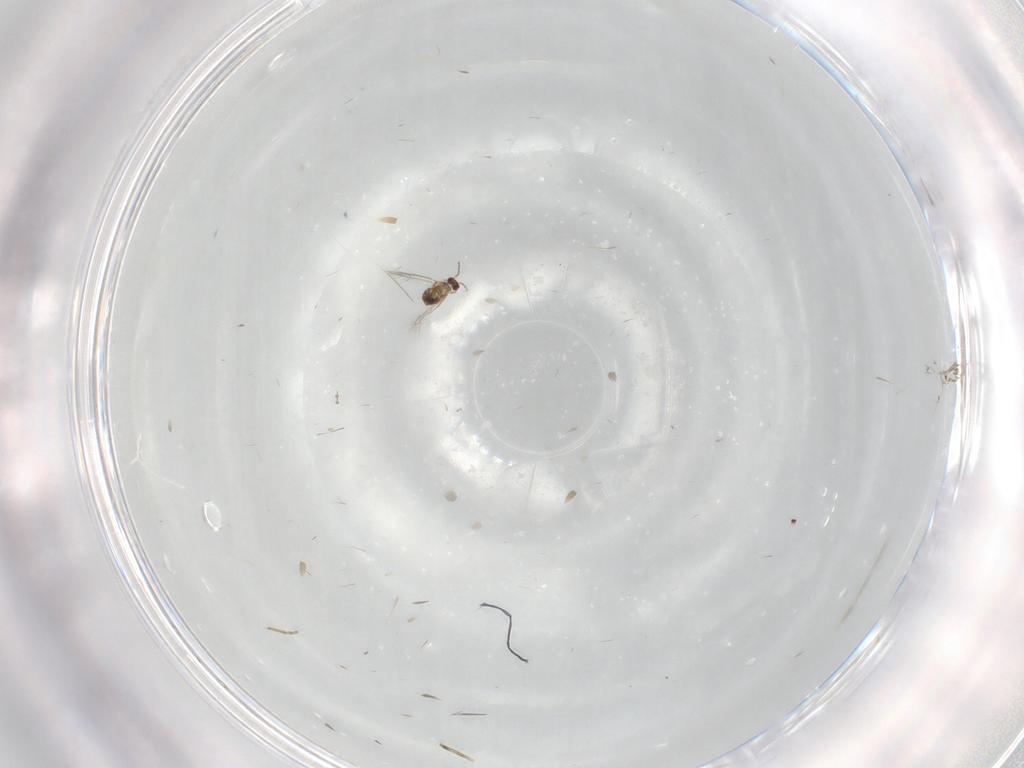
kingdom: Animalia
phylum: Arthropoda
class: Insecta
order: Hymenoptera
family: Mymaridae
